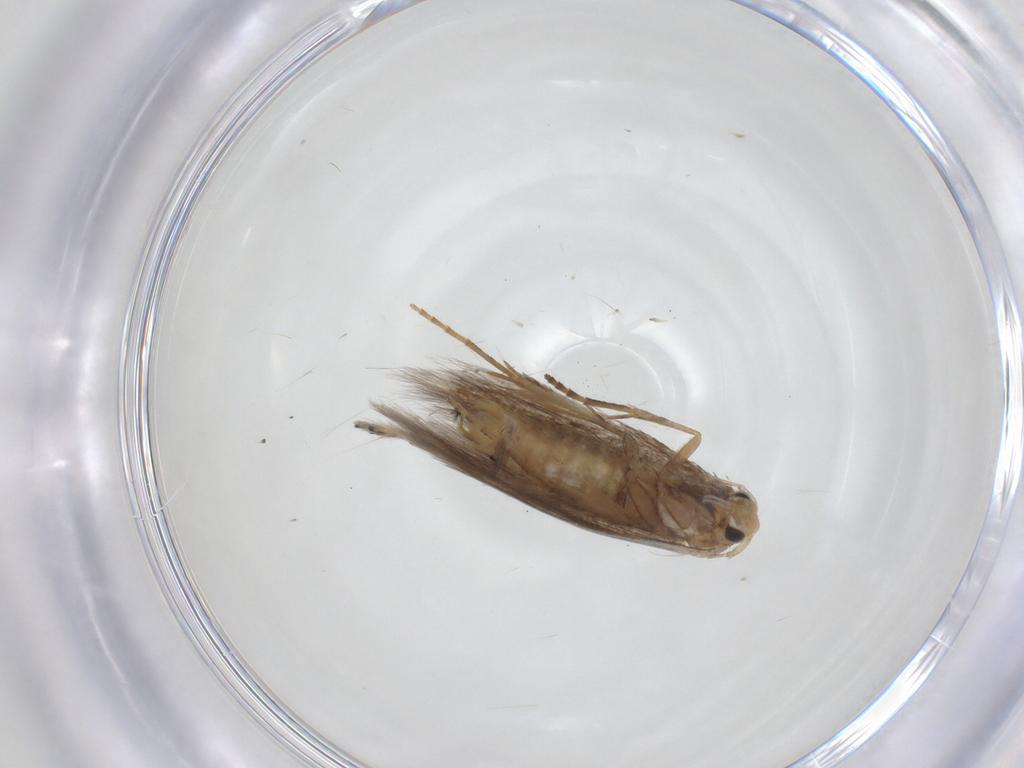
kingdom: Animalia
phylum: Arthropoda
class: Insecta
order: Lepidoptera
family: Bucculatricidae
